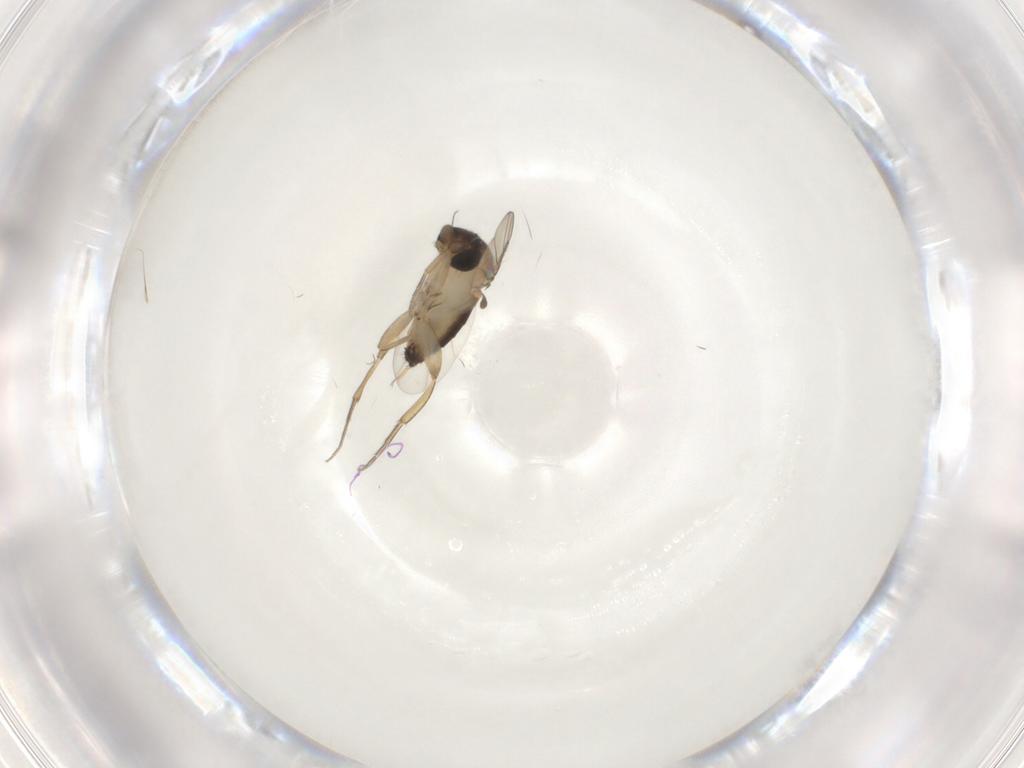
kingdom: Animalia
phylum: Arthropoda
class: Insecta
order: Diptera
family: Phoridae
